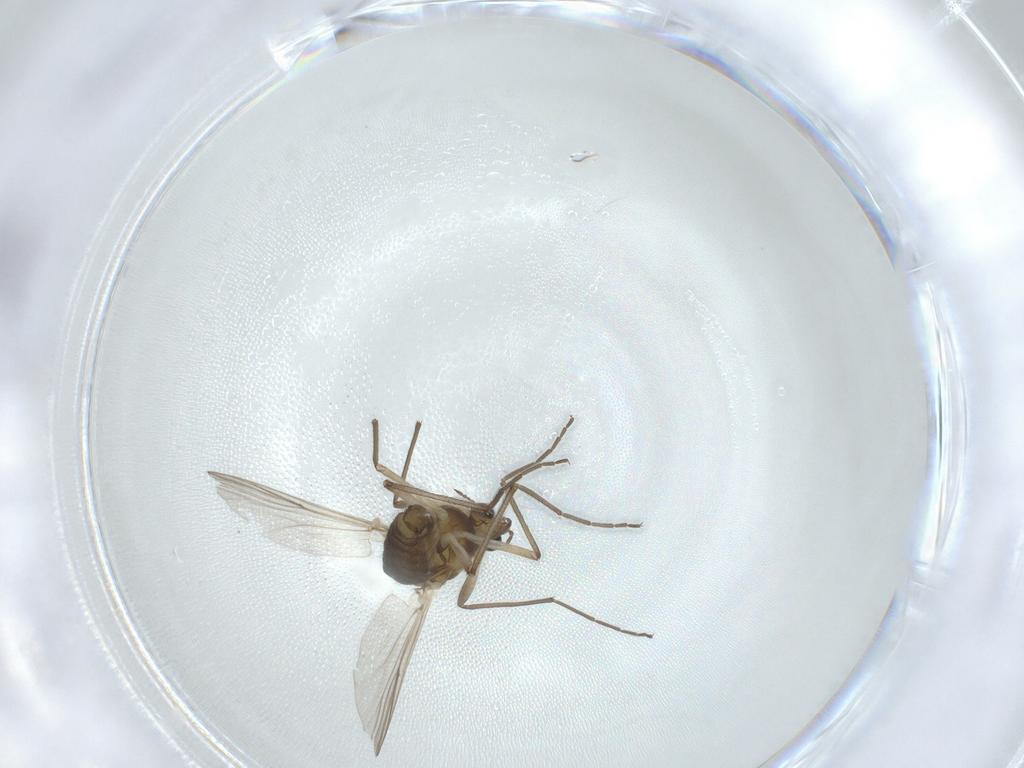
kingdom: Animalia
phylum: Arthropoda
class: Insecta
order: Diptera
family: Chironomidae
